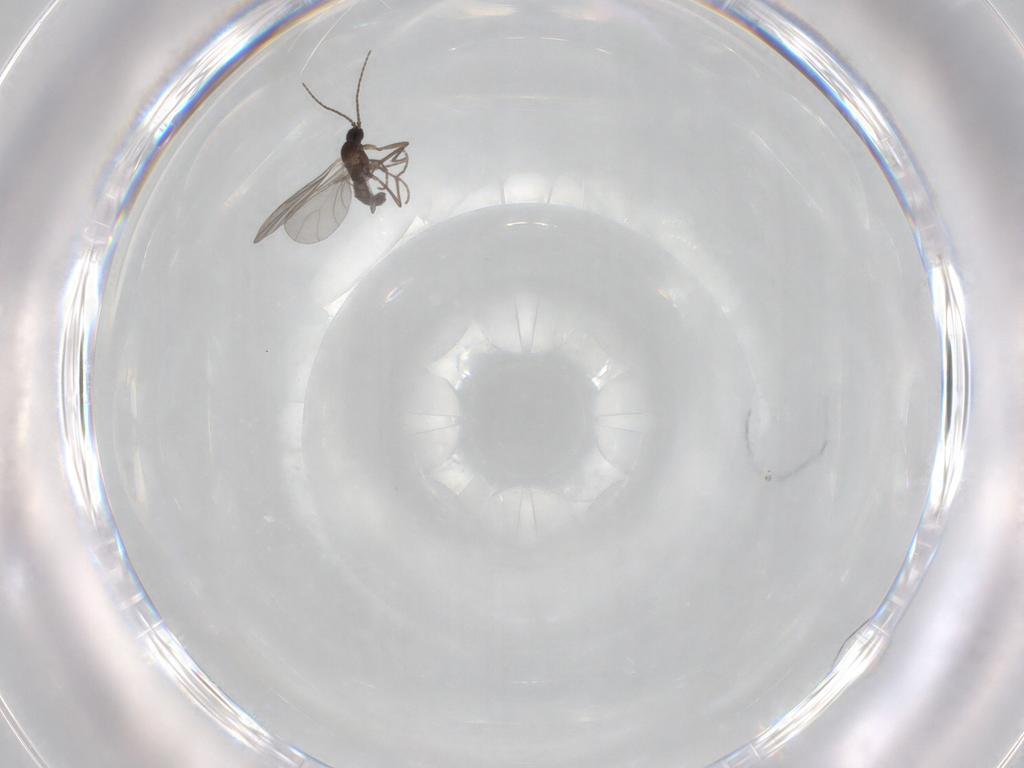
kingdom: Animalia
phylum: Arthropoda
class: Insecta
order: Diptera
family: Sciaridae
